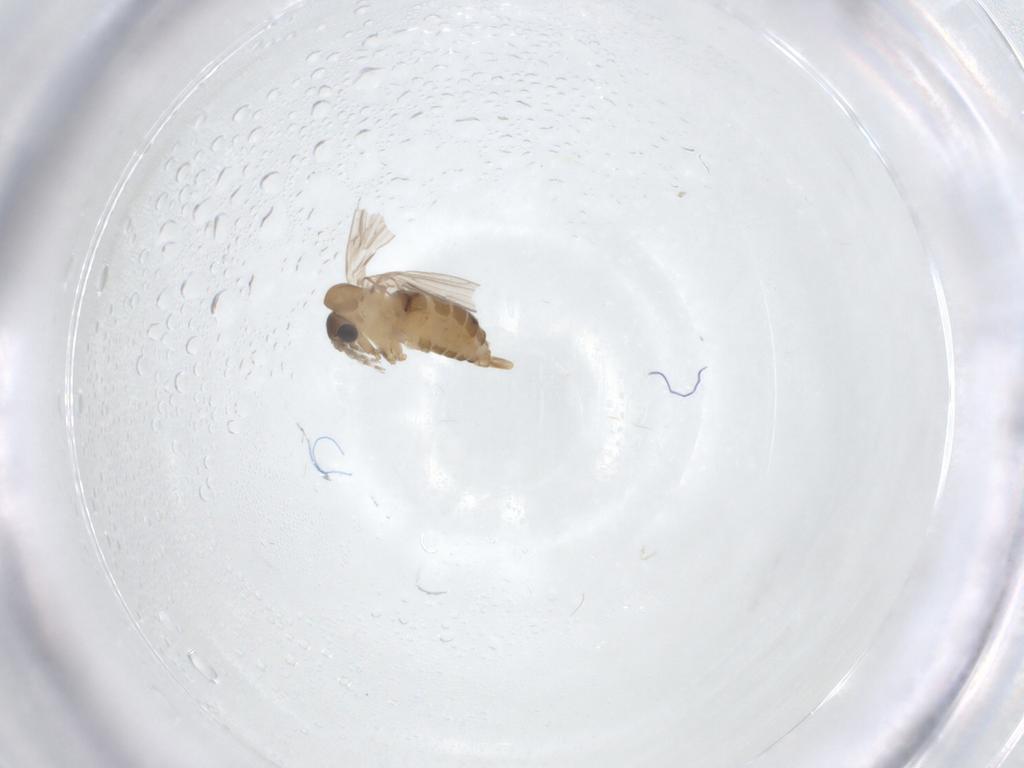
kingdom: Animalia
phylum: Arthropoda
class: Insecta
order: Diptera
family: Psychodidae
